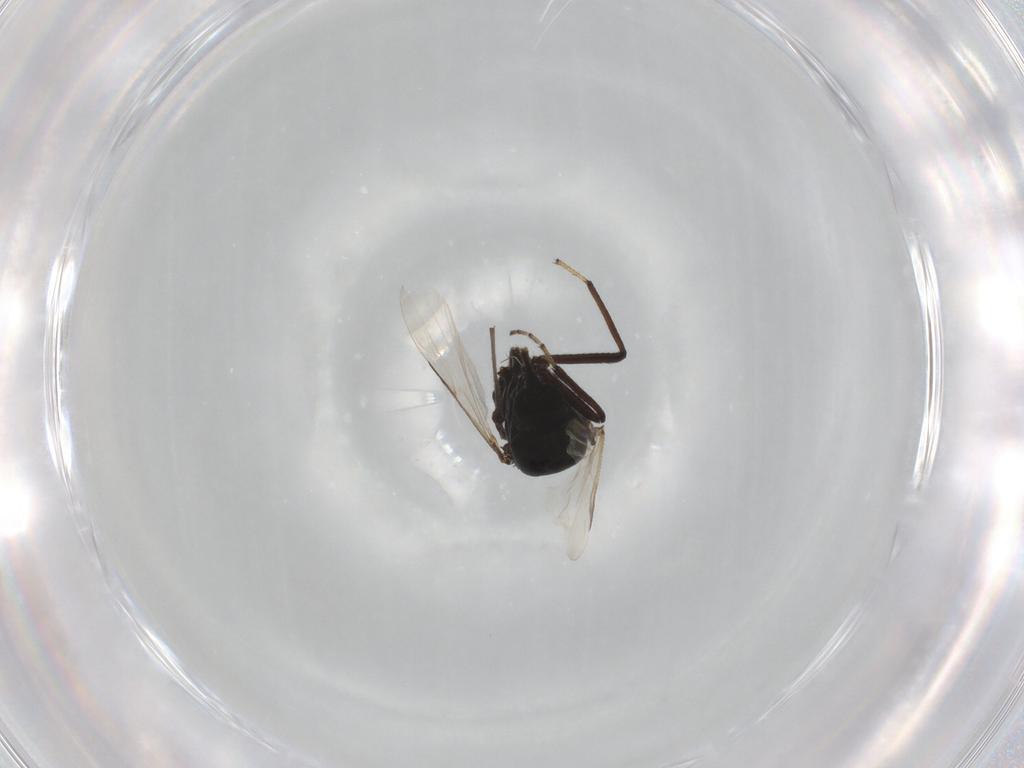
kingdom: Animalia
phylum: Arthropoda
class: Insecta
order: Diptera
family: Ceratopogonidae
